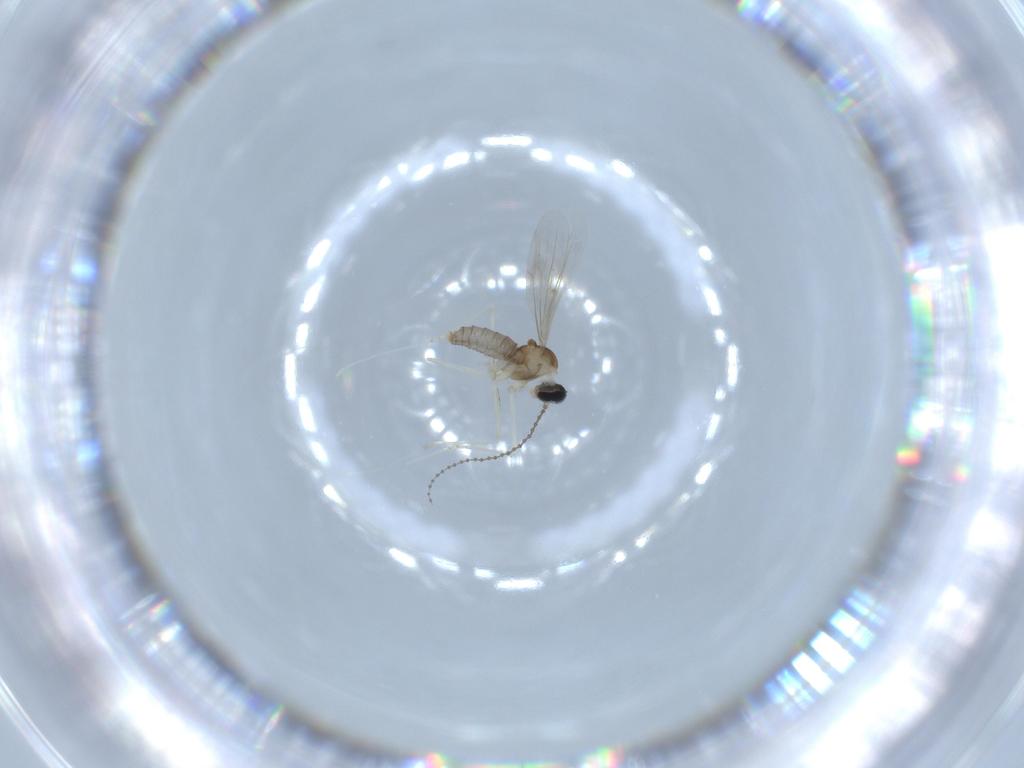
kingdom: Animalia
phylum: Arthropoda
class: Insecta
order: Diptera
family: Cecidomyiidae
